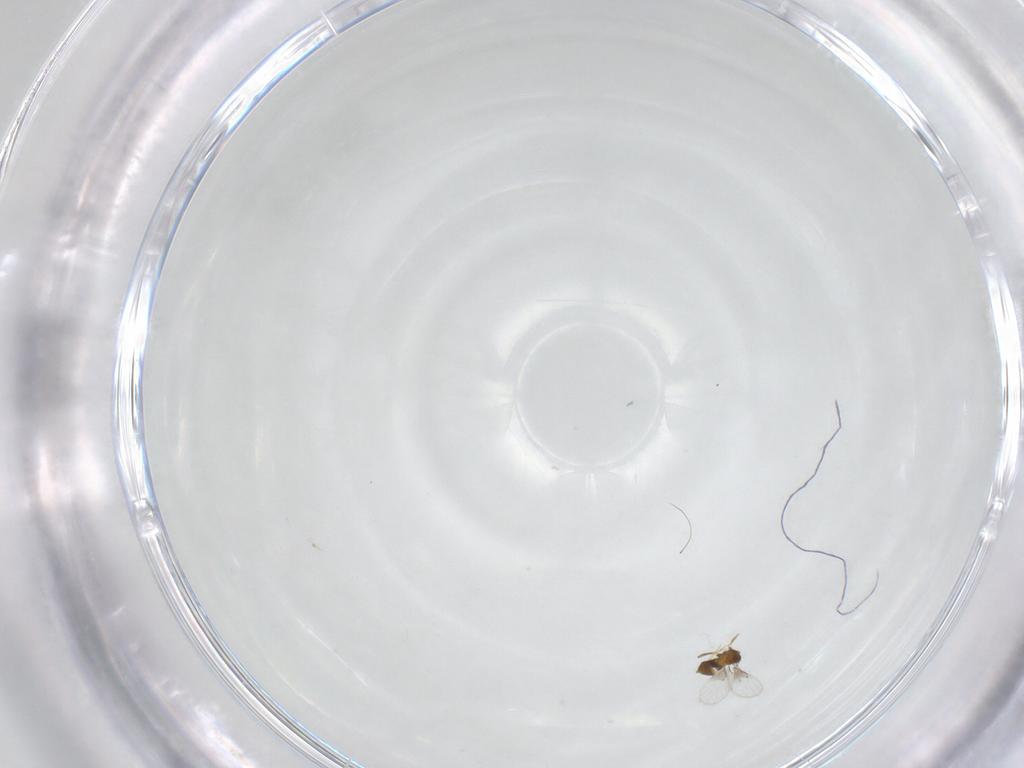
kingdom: Animalia
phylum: Arthropoda
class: Insecta
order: Hymenoptera
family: Trichogrammatidae
